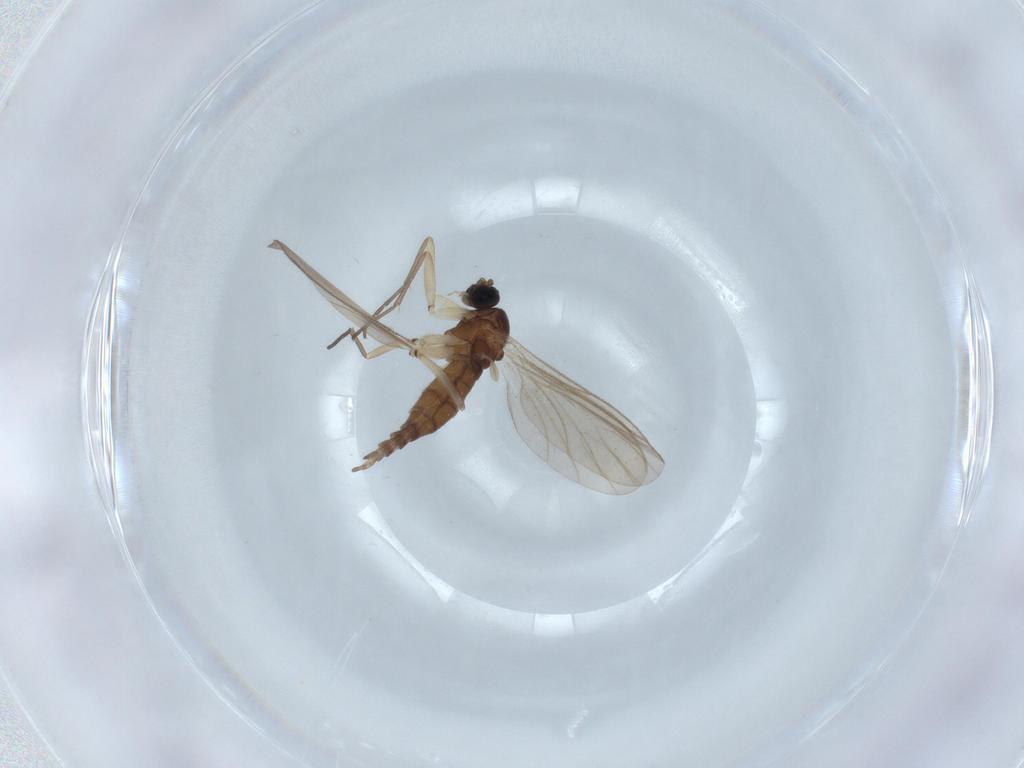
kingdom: Animalia
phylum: Arthropoda
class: Insecta
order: Diptera
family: Sciaridae
